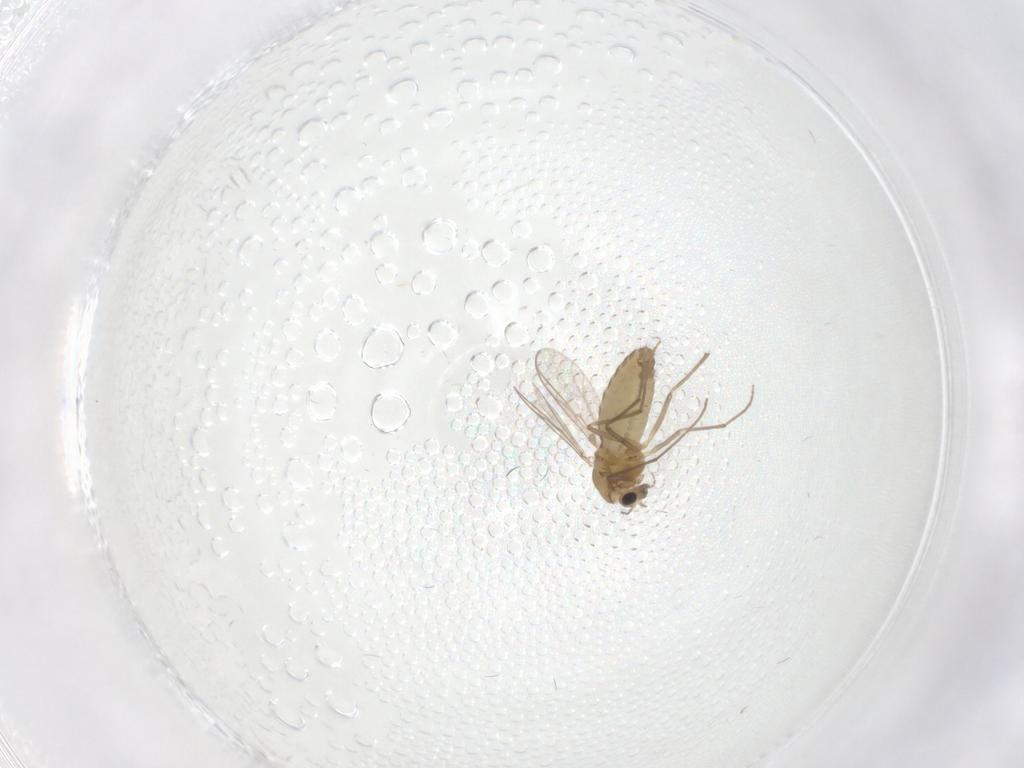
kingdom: Animalia
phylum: Arthropoda
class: Insecta
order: Diptera
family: Chironomidae
